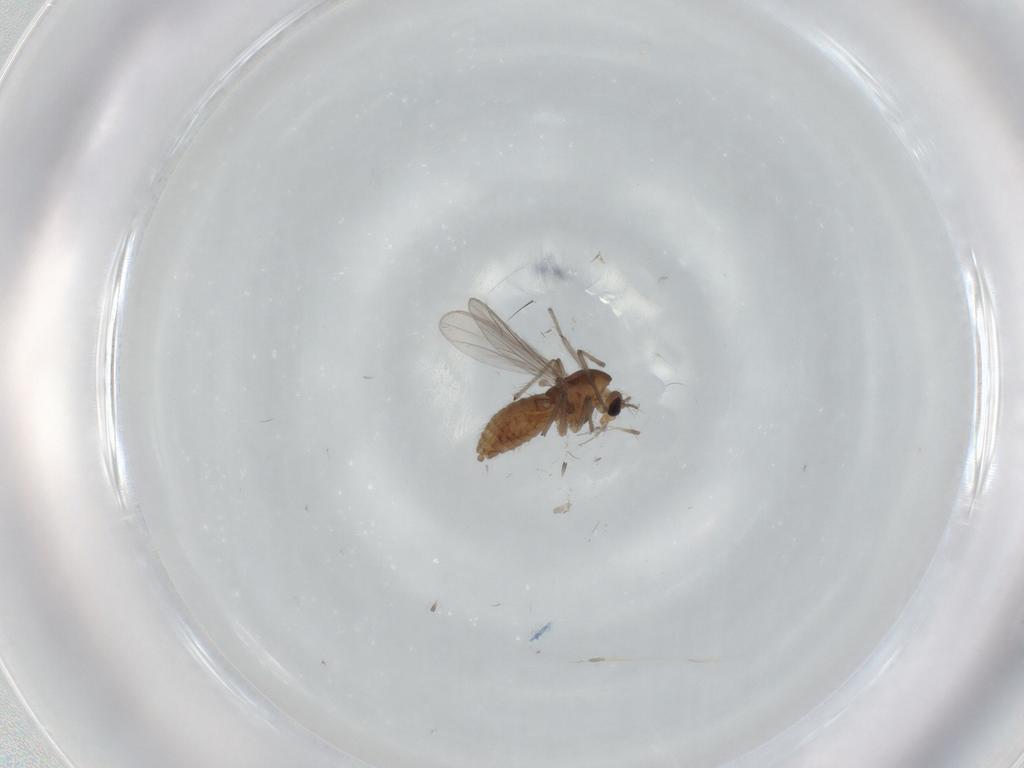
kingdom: Animalia
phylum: Arthropoda
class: Insecta
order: Diptera
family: Chironomidae
